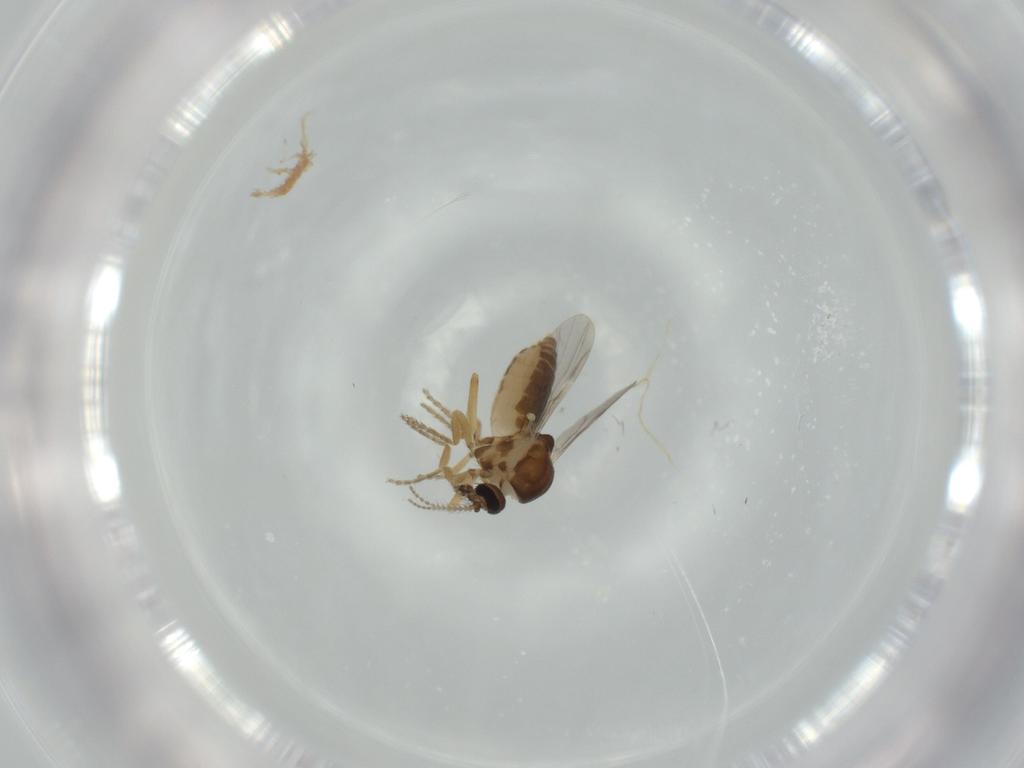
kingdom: Animalia
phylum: Arthropoda
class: Insecta
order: Diptera
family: Ceratopogonidae
